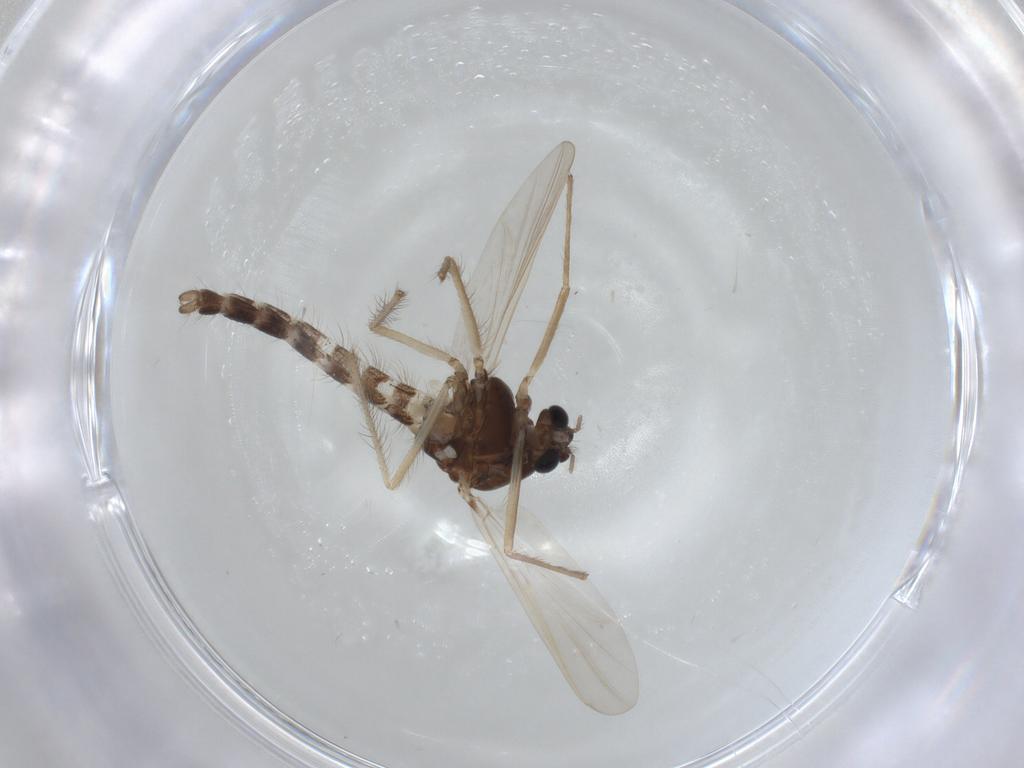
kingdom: Animalia
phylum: Arthropoda
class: Insecta
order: Diptera
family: Chironomidae
